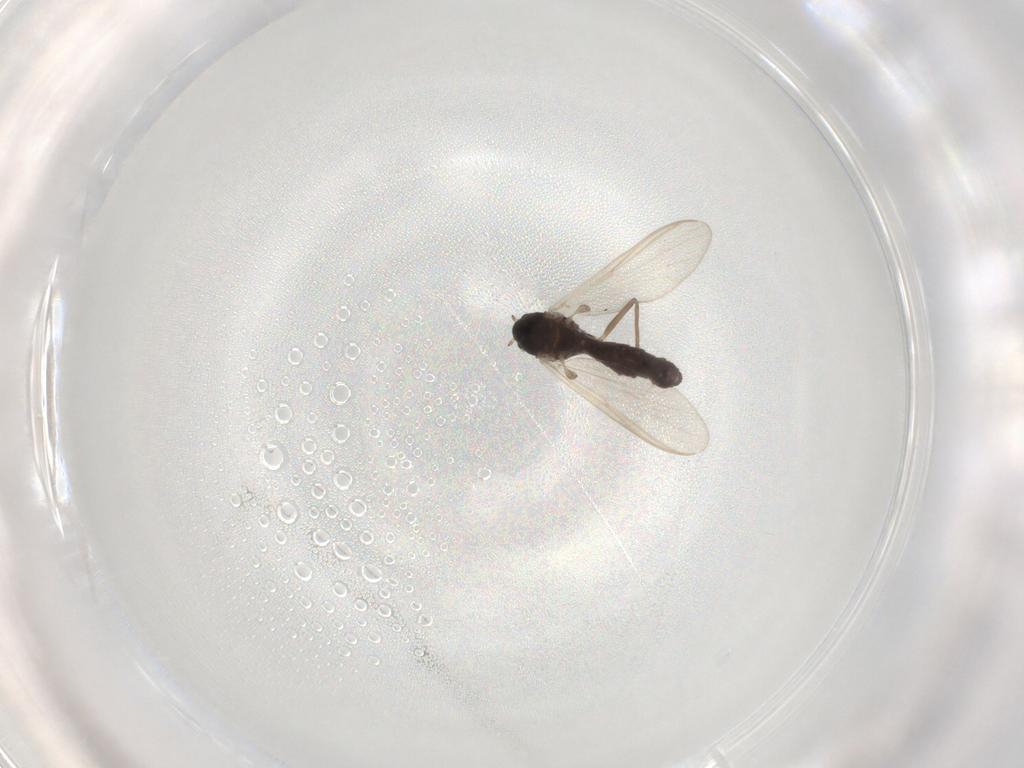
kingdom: Animalia
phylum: Arthropoda
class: Insecta
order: Diptera
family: Chironomidae
